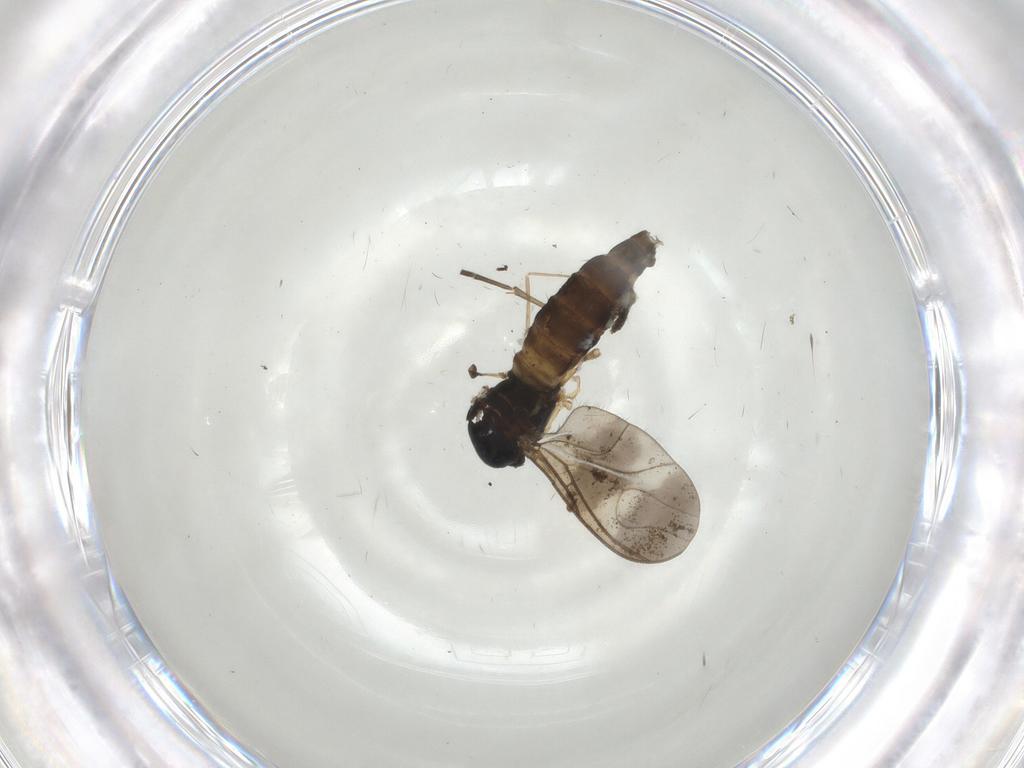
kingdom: Animalia
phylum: Arthropoda
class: Insecta
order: Diptera
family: Sciaridae
